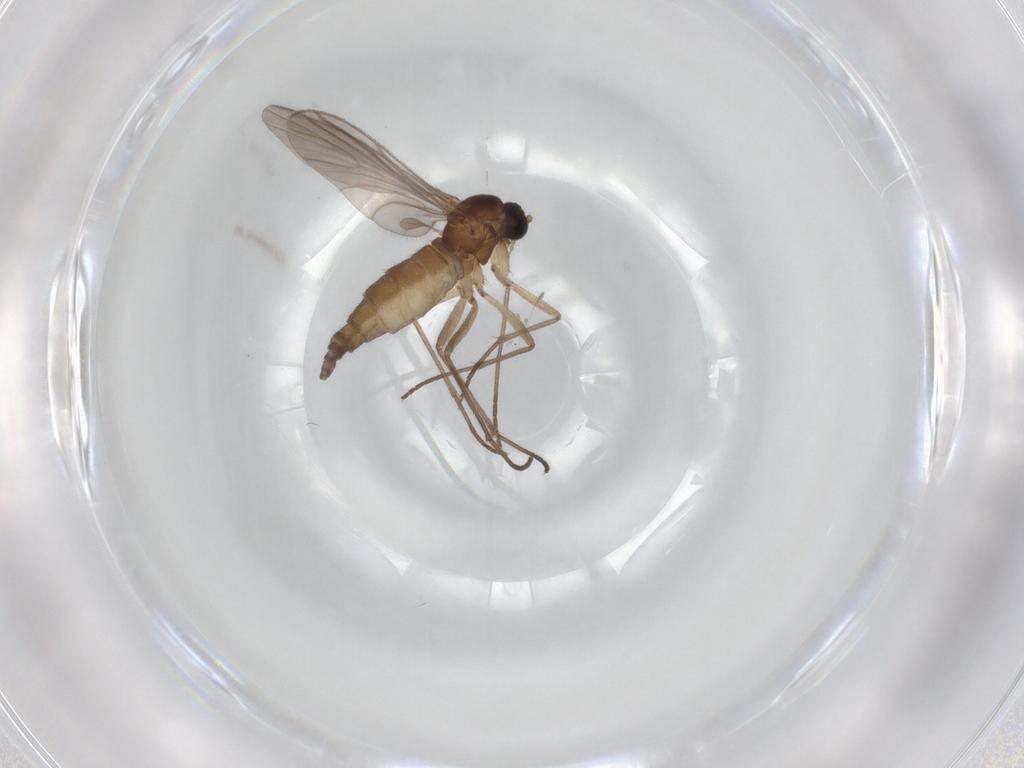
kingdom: Animalia
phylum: Arthropoda
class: Insecta
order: Diptera
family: Sciaridae
